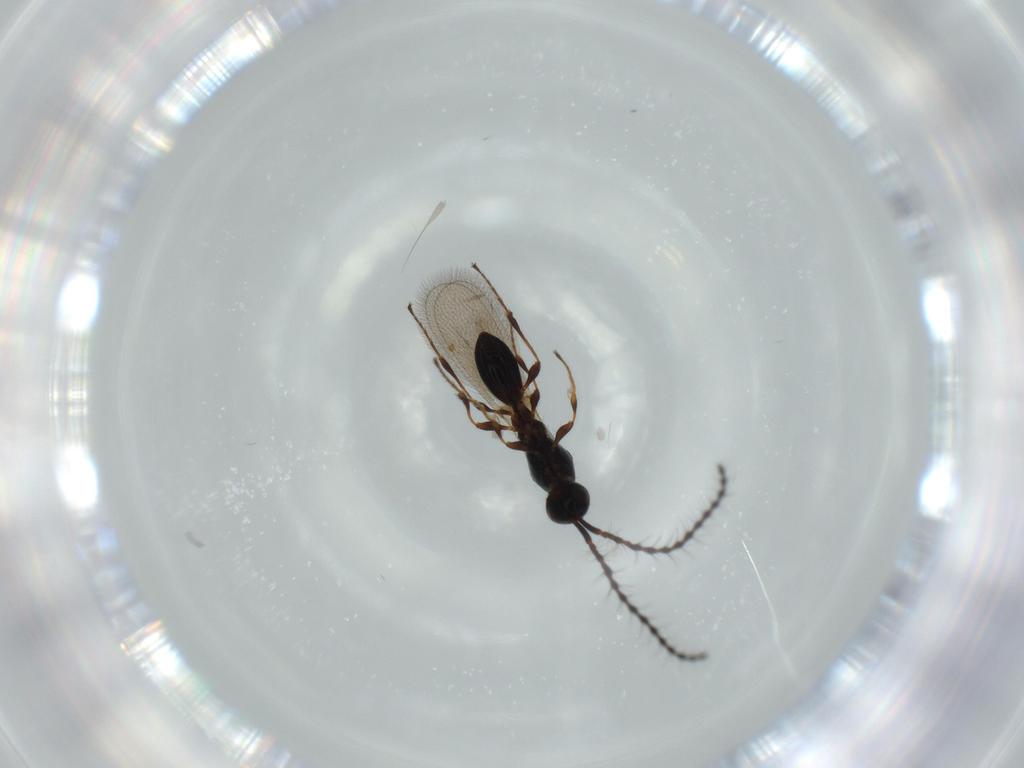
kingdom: Animalia
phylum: Arthropoda
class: Insecta
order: Hymenoptera
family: Diapriidae
